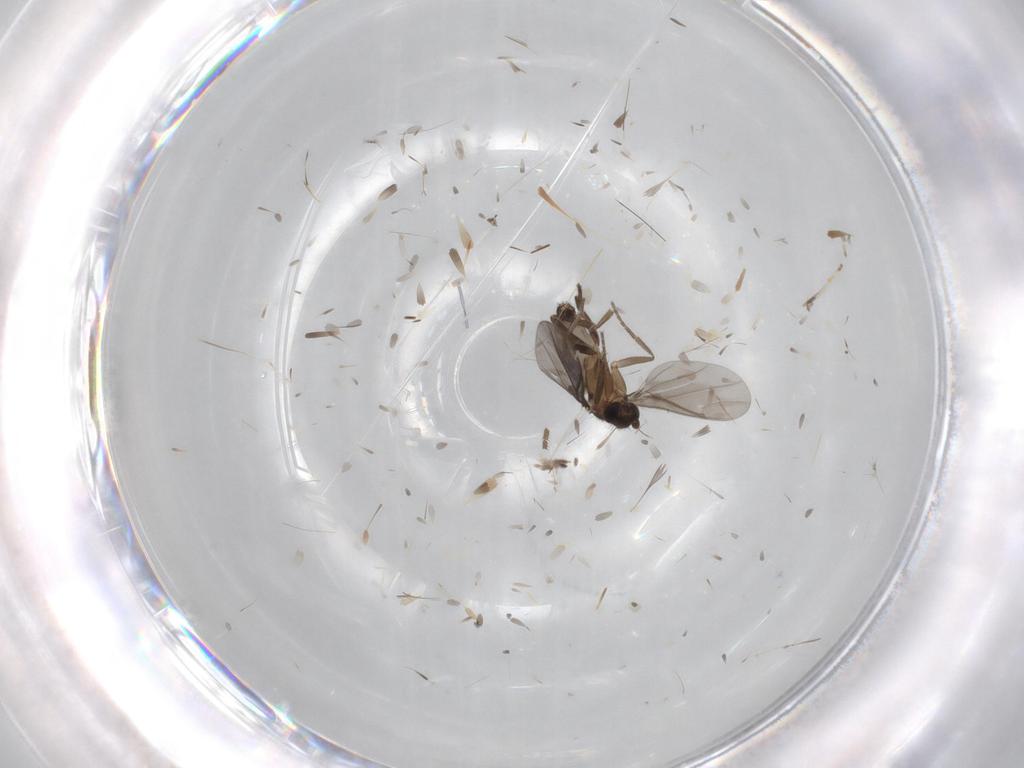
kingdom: Animalia
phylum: Arthropoda
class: Insecta
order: Diptera
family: Phoridae
